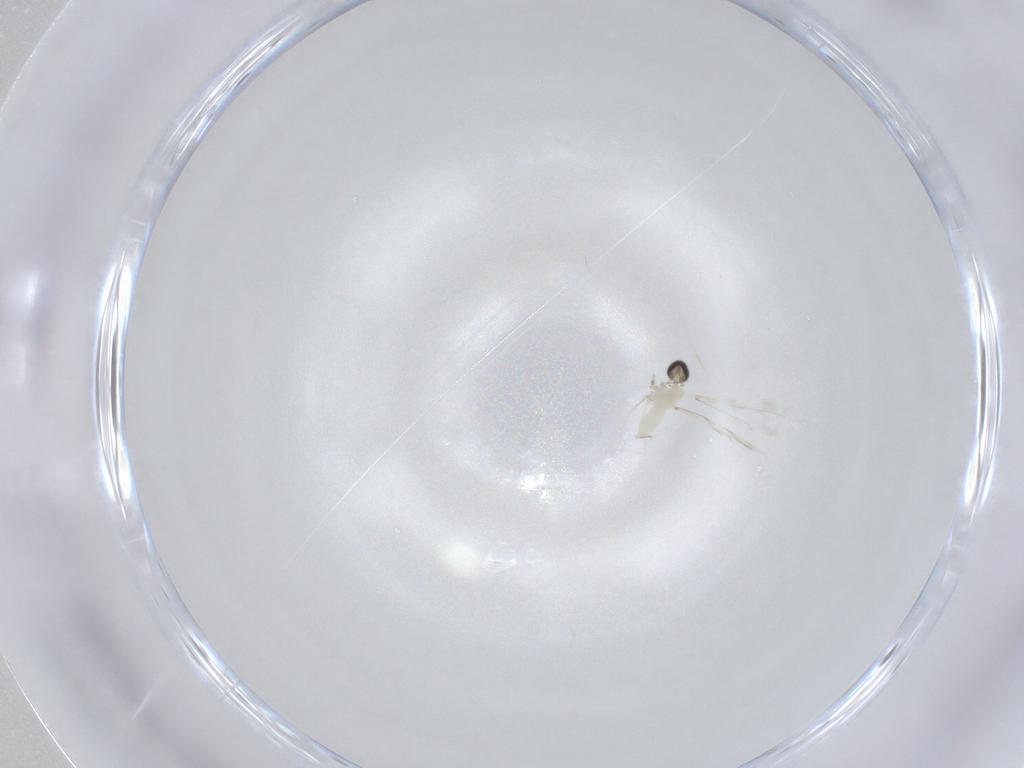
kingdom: Animalia
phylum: Arthropoda
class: Insecta
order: Diptera
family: Cecidomyiidae
